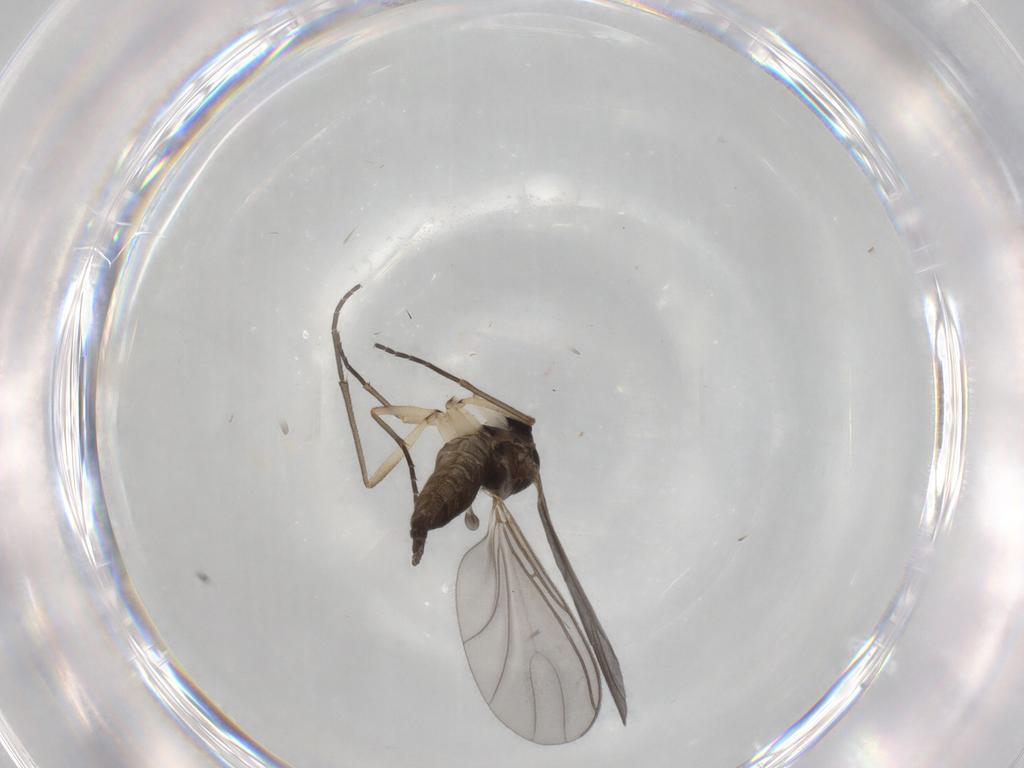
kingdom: Animalia
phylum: Arthropoda
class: Insecta
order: Diptera
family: Sciaridae
